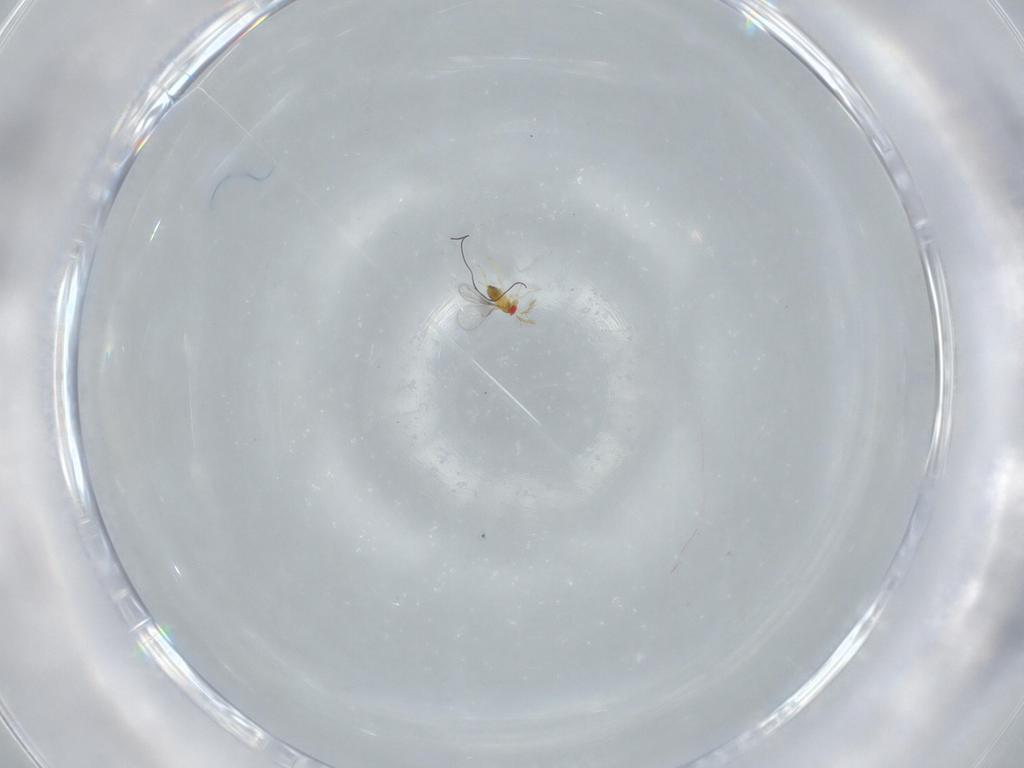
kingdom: Animalia
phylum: Arthropoda
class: Insecta
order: Hymenoptera
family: Trichogrammatidae
